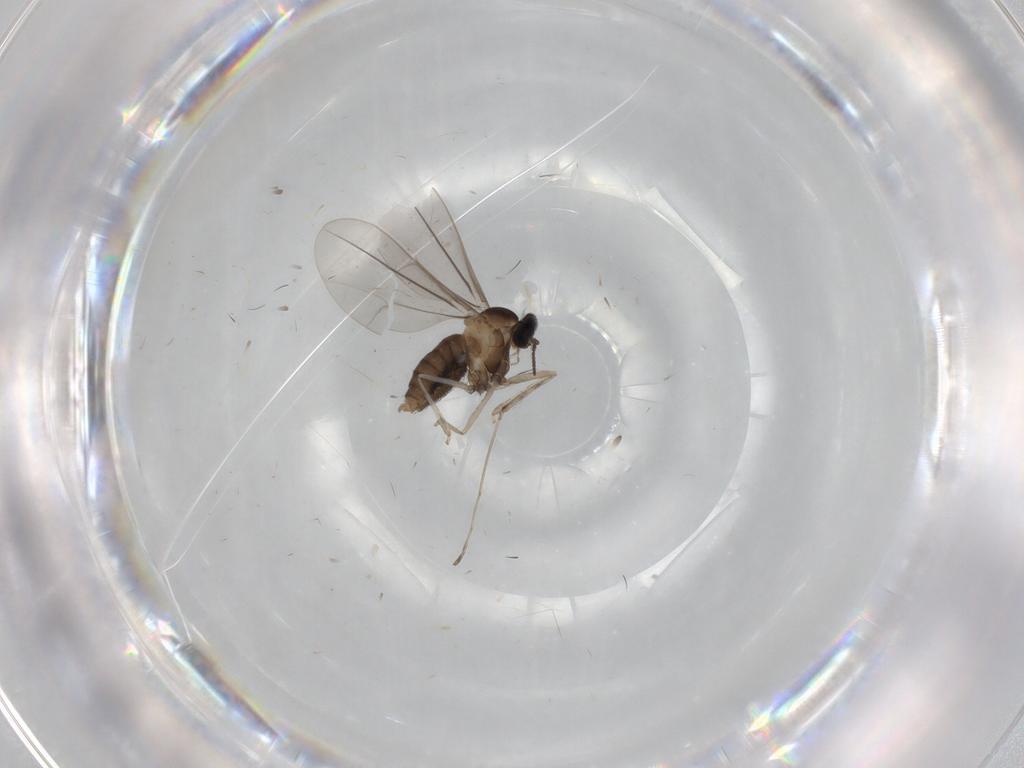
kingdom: Animalia
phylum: Arthropoda
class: Insecta
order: Diptera
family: Cecidomyiidae
